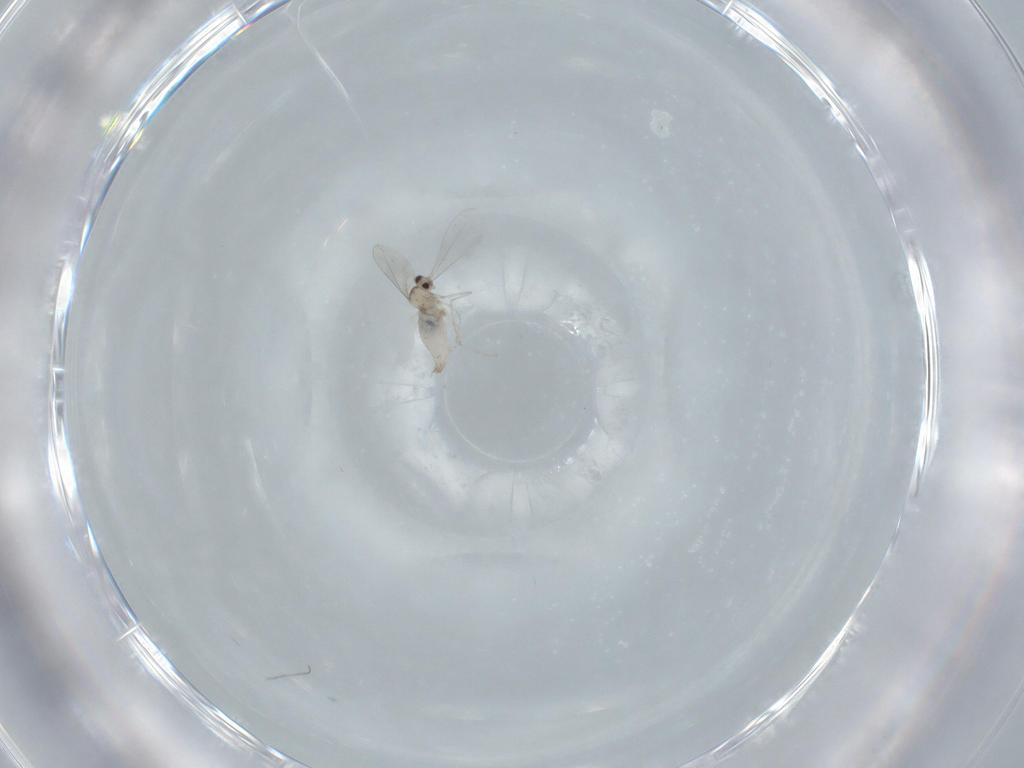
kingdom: Animalia
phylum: Arthropoda
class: Insecta
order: Diptera
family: Cecidomyiidae
